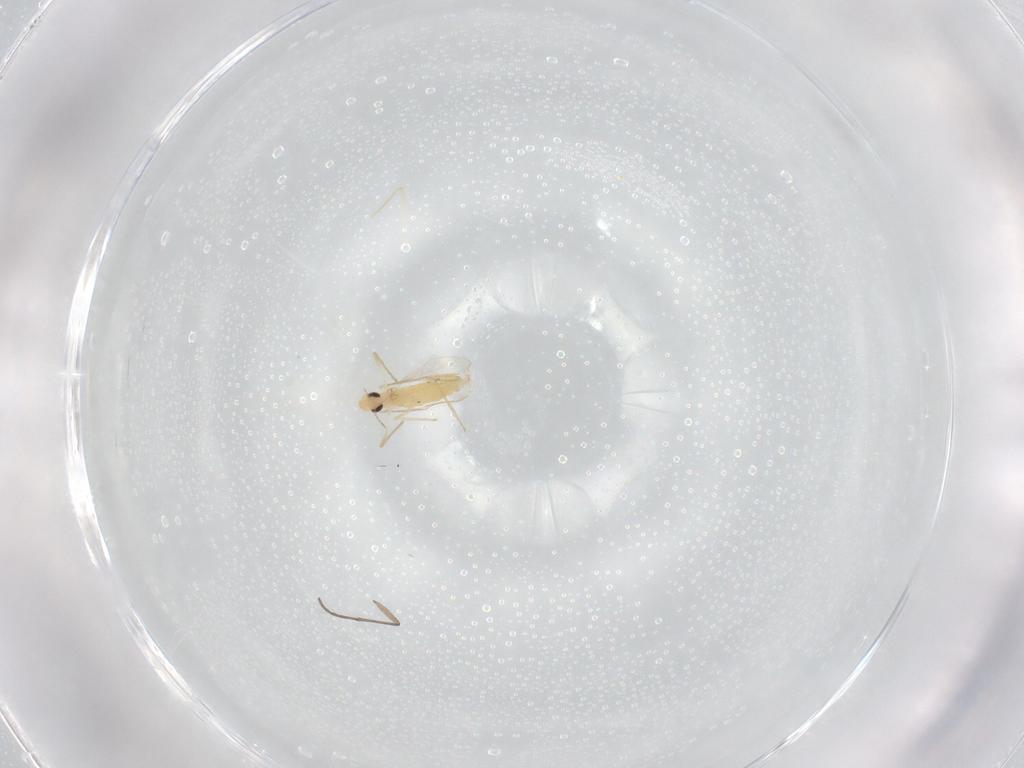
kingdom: Animalia
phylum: Arthropoda
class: Insecta
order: Diptera
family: Chironomidae
